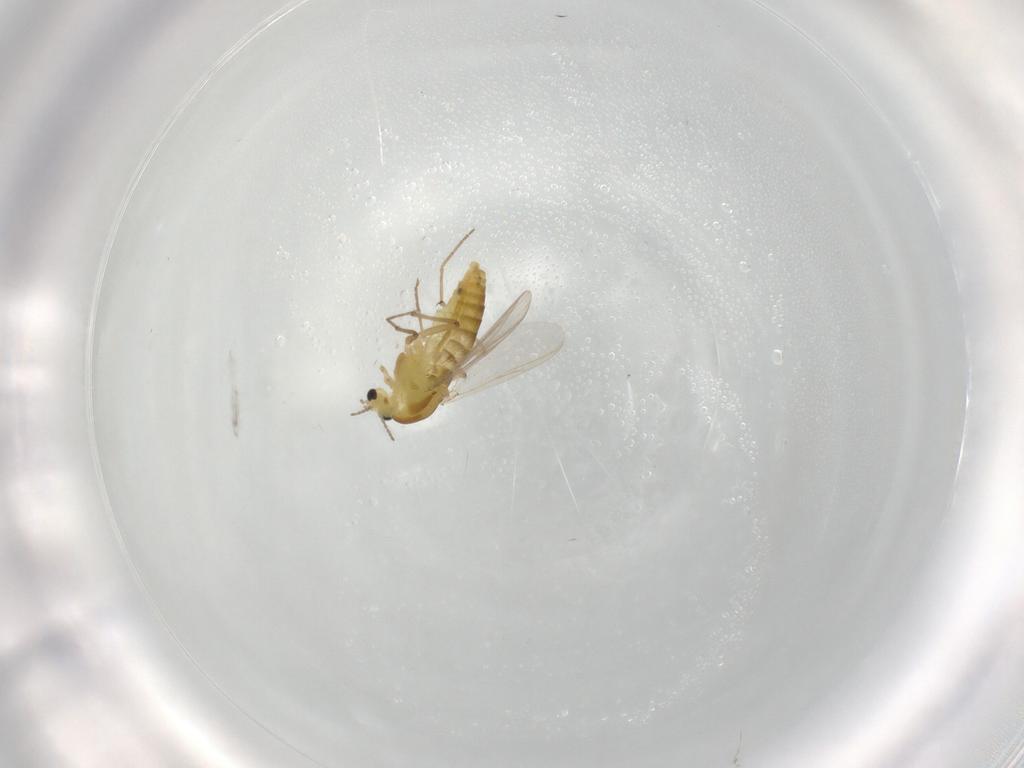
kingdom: Animalia
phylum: Arthropoda
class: Insecta
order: Diptera
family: Chironomidae
